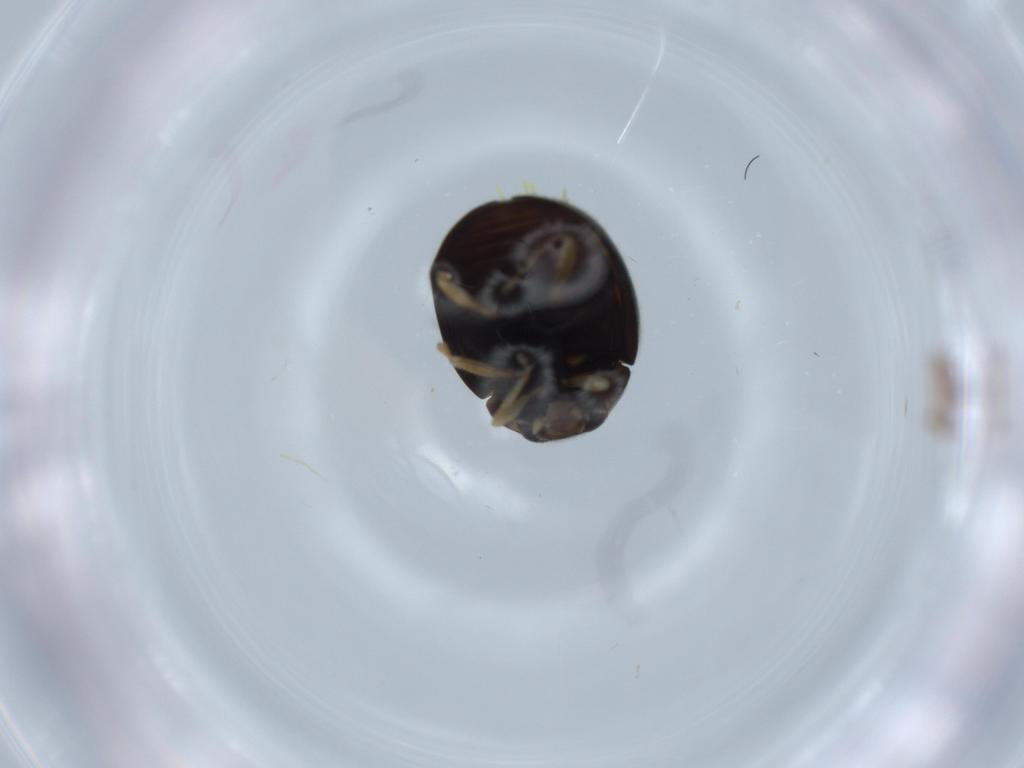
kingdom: Animalia
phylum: Arthropoda
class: Insecta
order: Coleoptera
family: Coccinellidae
